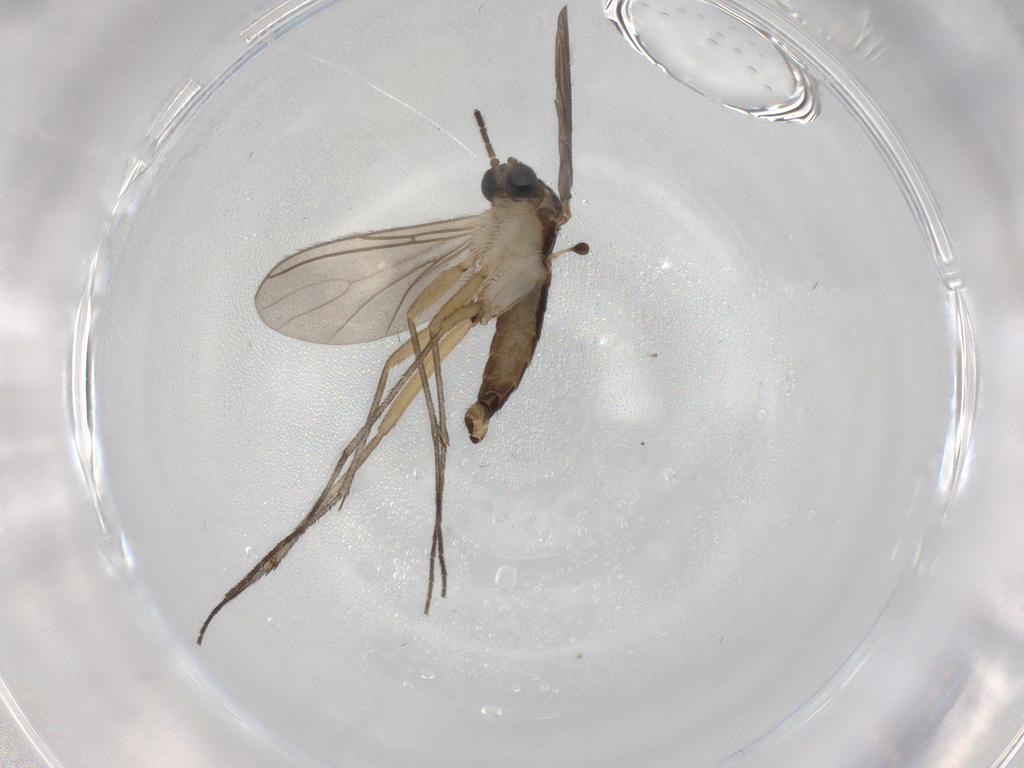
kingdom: Animalia
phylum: Arthropoda
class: Insecta
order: Diptera
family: Sciaridae
